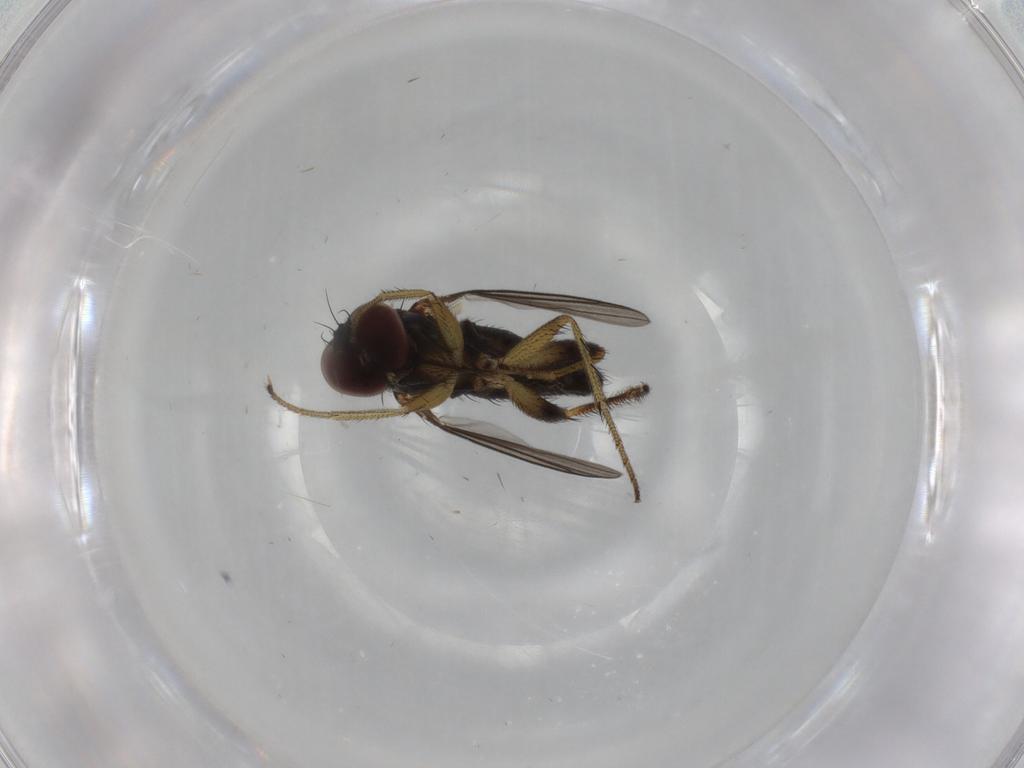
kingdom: Animalia
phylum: Arthropoda
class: Insecta
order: Diptera
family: Dolichopodidae
